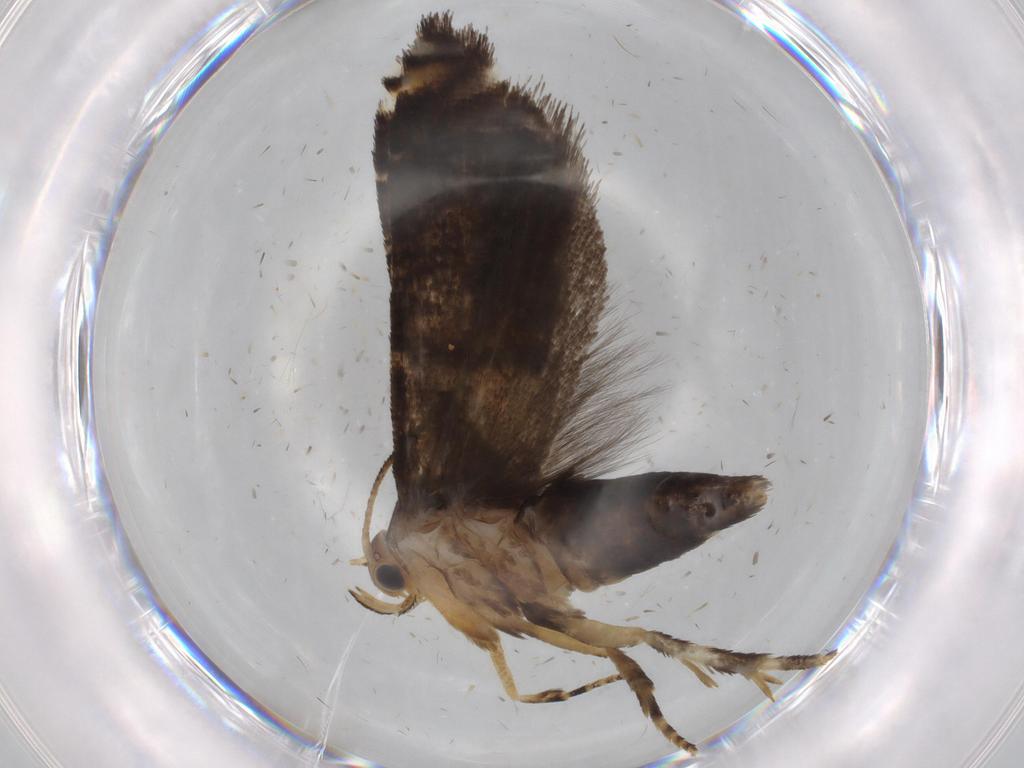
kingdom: Animalia
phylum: Arthropoda
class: Insecta
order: Lepidoptera
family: Nepticulidae
